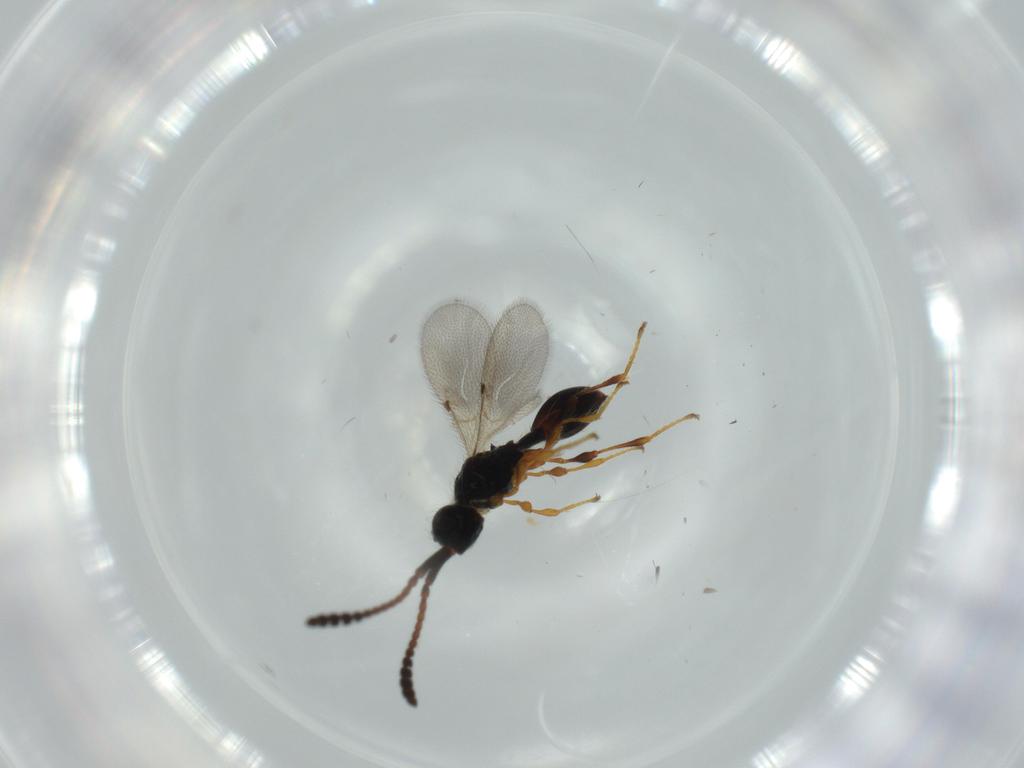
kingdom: Animalia
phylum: Arthropoda
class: Insecta
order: Hymenoptera
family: Diapriidae
